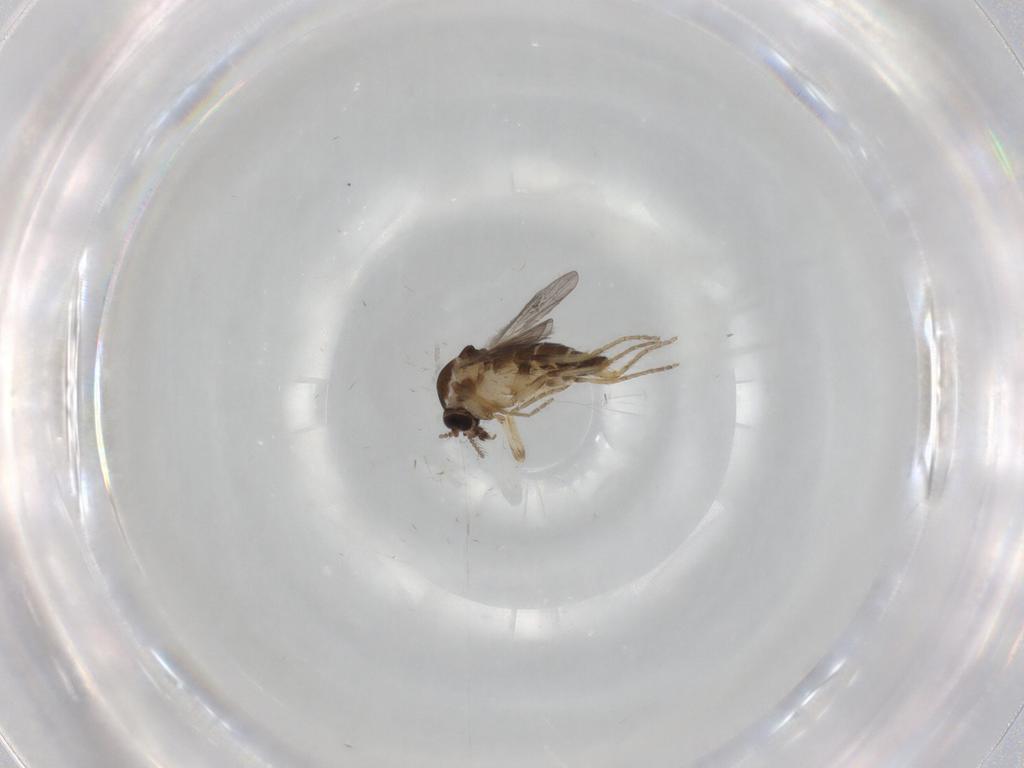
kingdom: Animalia
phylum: Arthropoda
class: Insecta
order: Diptera
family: Ceratopogonidae
